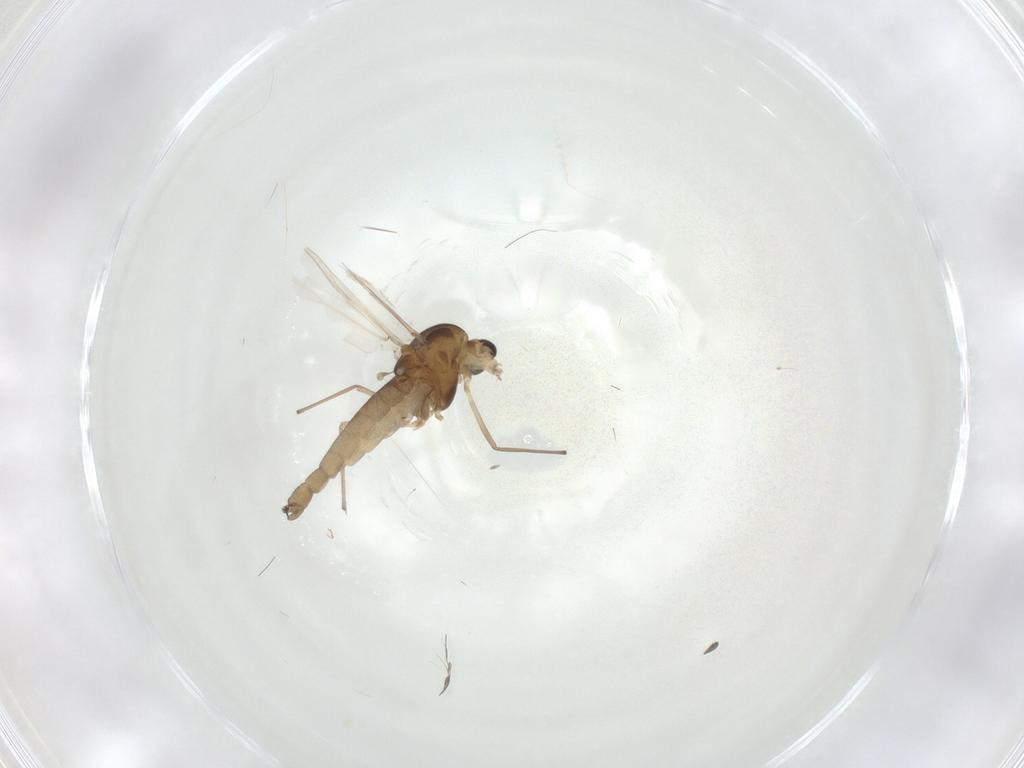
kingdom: Animalia
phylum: Arthropoda
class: Insecta
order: Diptera
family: Chironomidae
